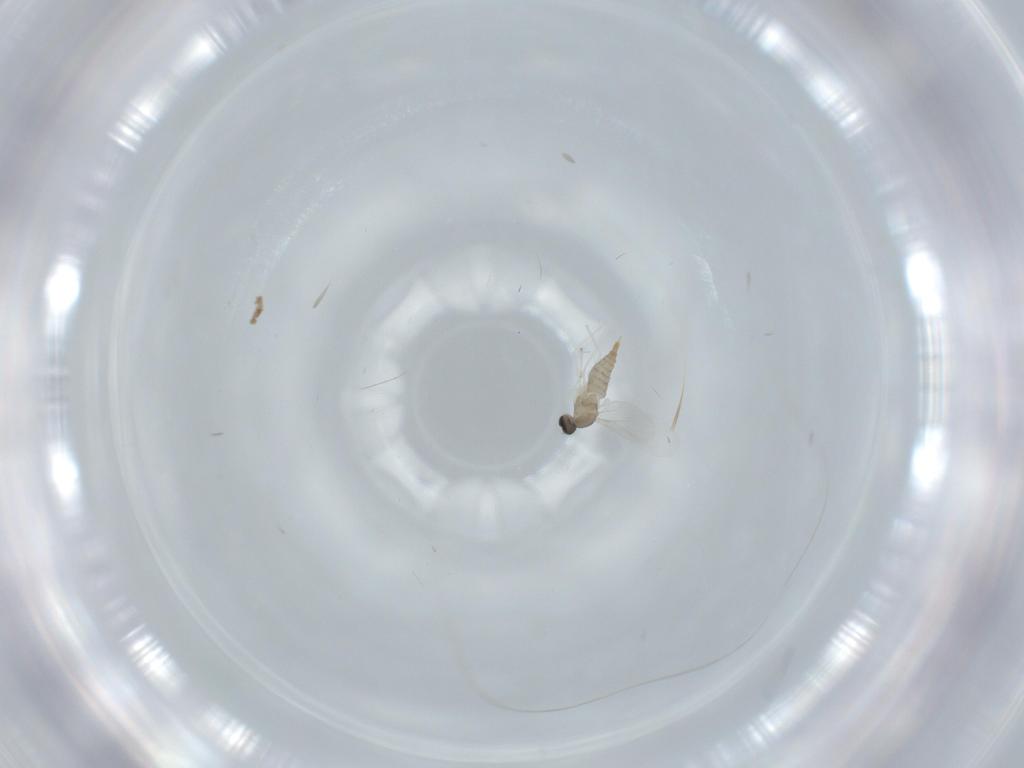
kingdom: Animalia
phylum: Arthropoda
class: Insecta
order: Diptera
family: Cecidomyiidae
